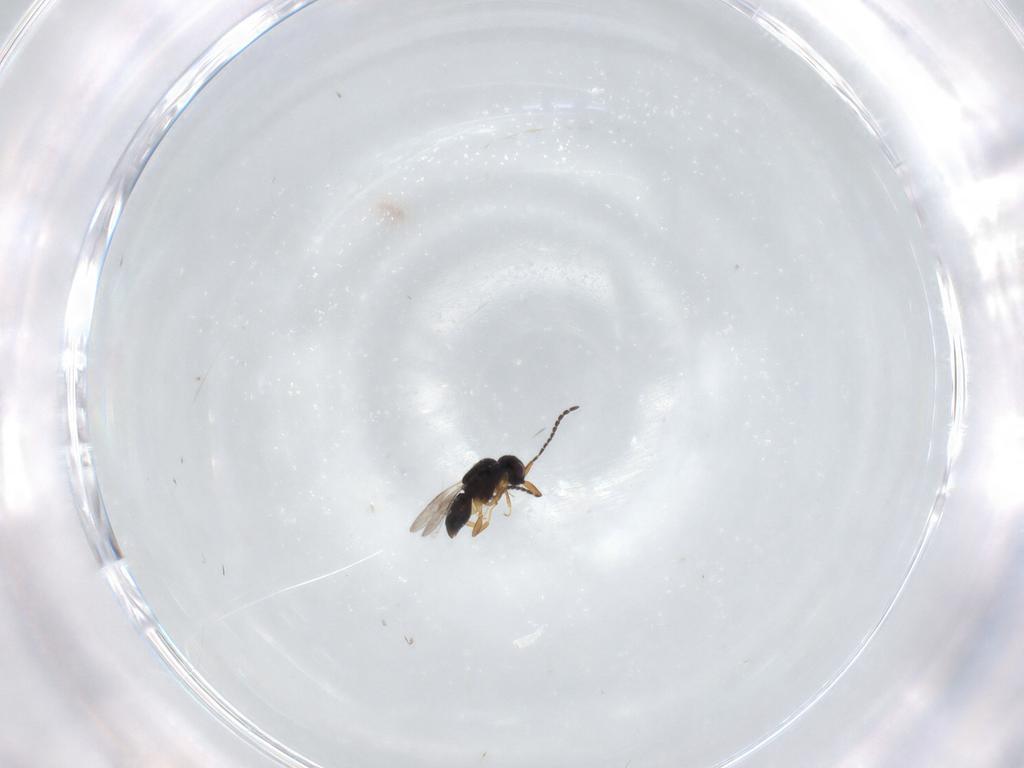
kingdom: Animalia
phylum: Arthropoda
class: Insecta
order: Hymenoptera
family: Ceraphronidae
